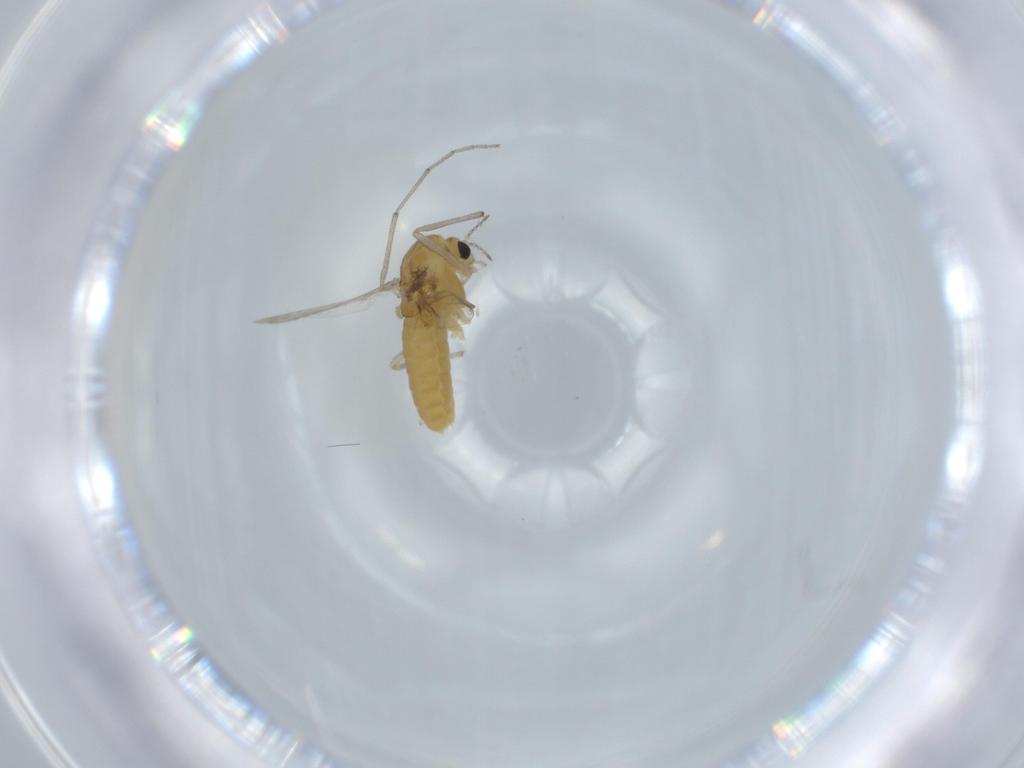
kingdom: Animalia
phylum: Arthropoda
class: Insecta
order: Diptera
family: Chironomidae
